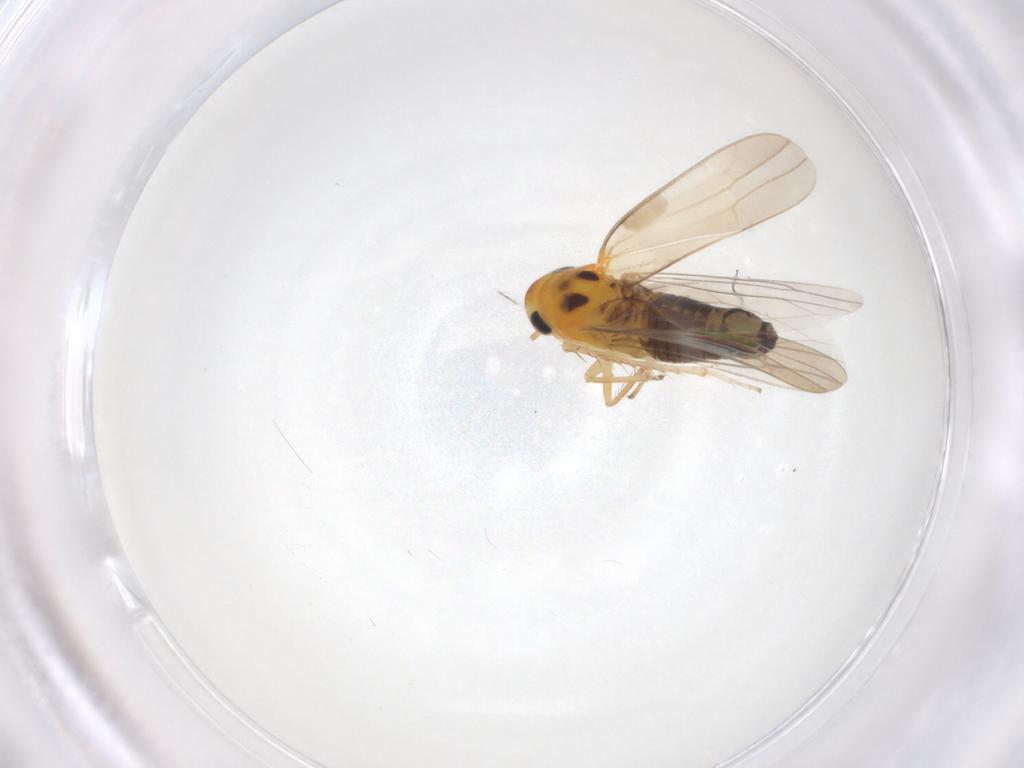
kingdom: Animalia
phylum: Arthropoda
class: Insecta
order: Hemiptera
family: Cicadellidae
